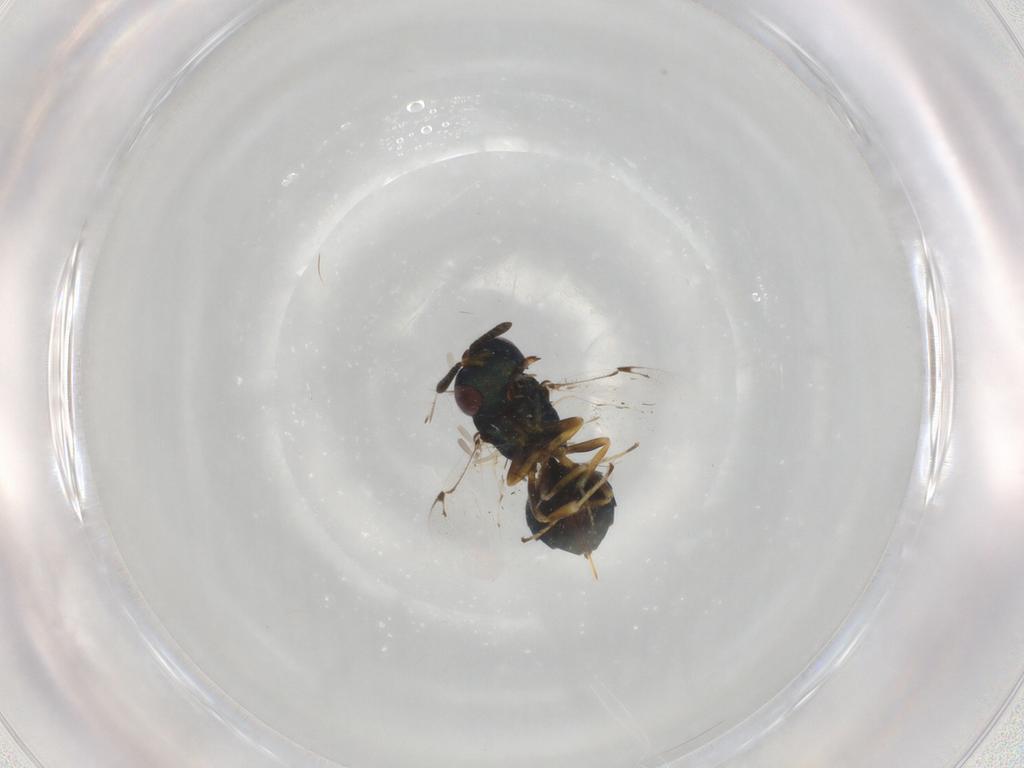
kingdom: Animalia
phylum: Arthropoda
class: Insecta
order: Hymenoptera
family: Pteromalidae
